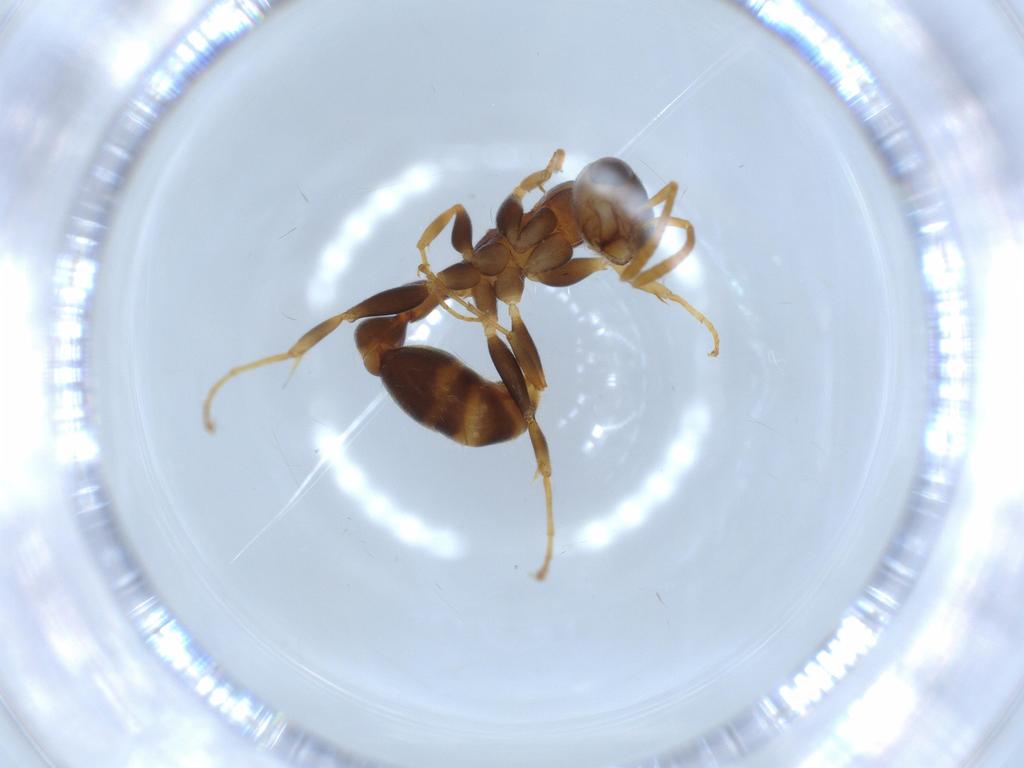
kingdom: Animalia
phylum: Arthropoda
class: Insecta
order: Hymenoptera
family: Formicidae
